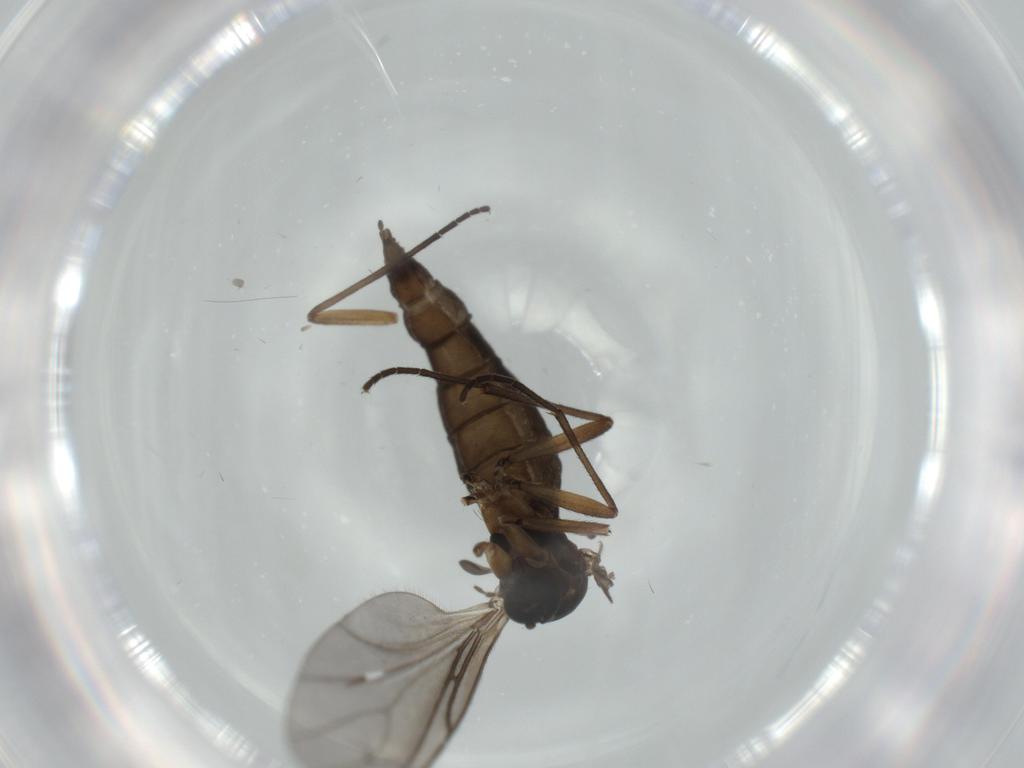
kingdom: Animalia
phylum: Arthropoda
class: Insecta
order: Diptera
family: Sciaridae
